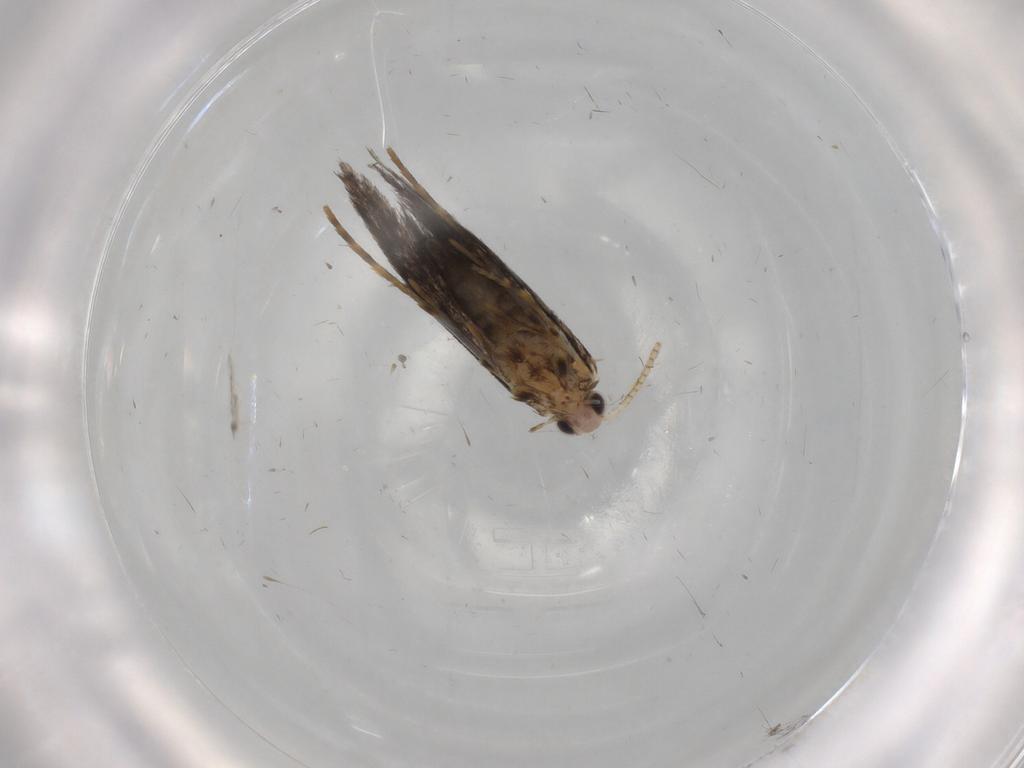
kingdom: Animalia
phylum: Arthropoda
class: Insecta
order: Lepidoptera
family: Tineidae
